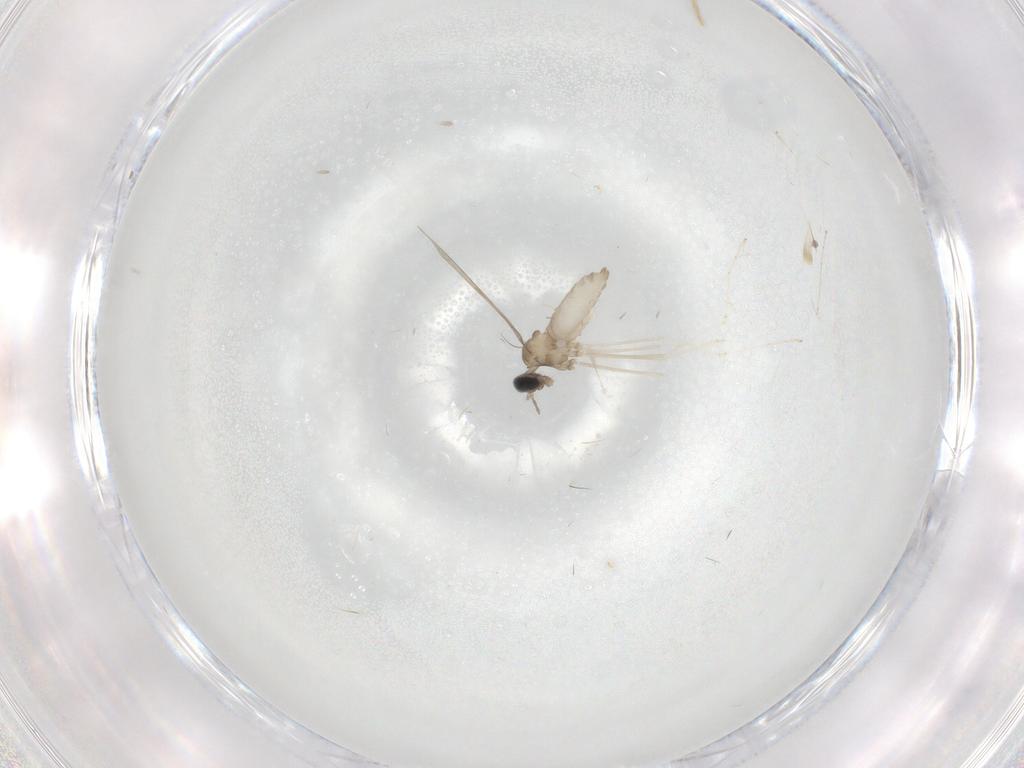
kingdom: Animalia
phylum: Arthropoda
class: Insecta
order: Diptera
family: Cecidomyiidae
